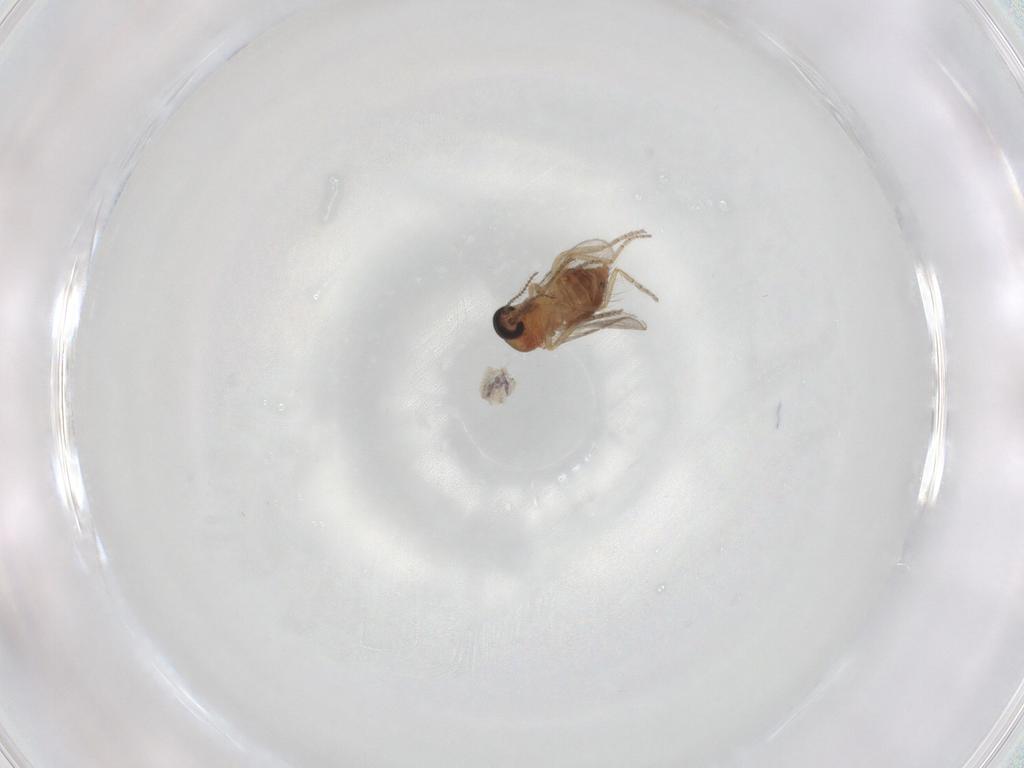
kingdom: Animalia
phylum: Arthropoda
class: Insecta
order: Diptera
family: Ceratopogonidae
